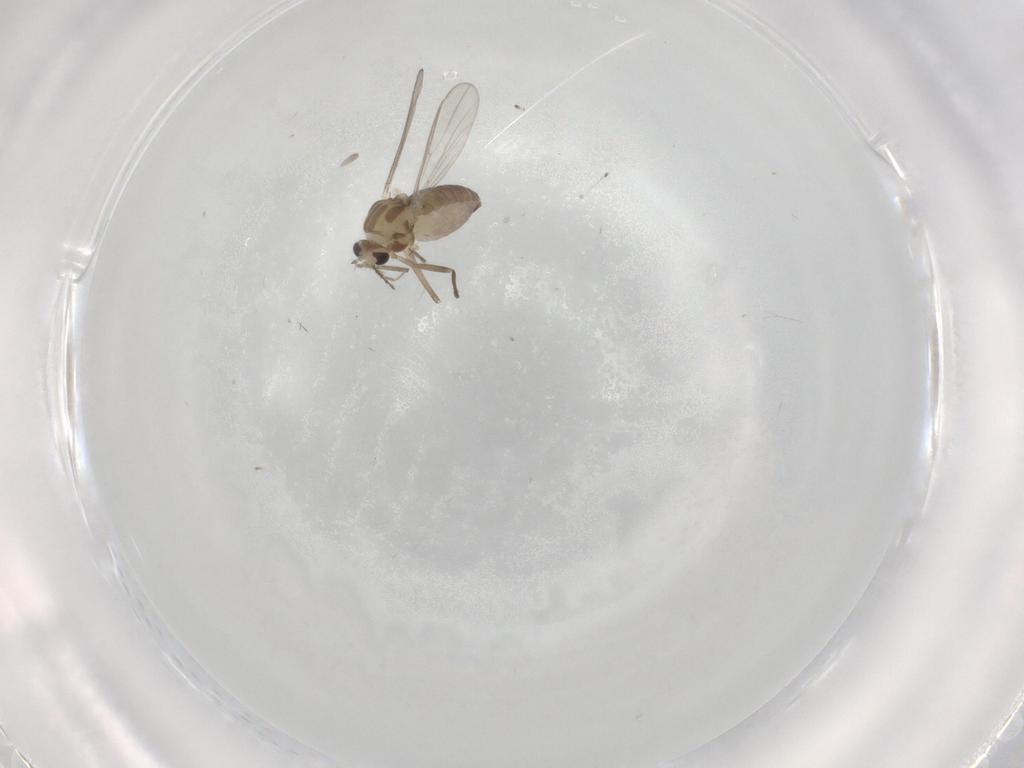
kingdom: Animalia
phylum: Arthropoda
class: Insecta
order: Diptera
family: Chironomidae
